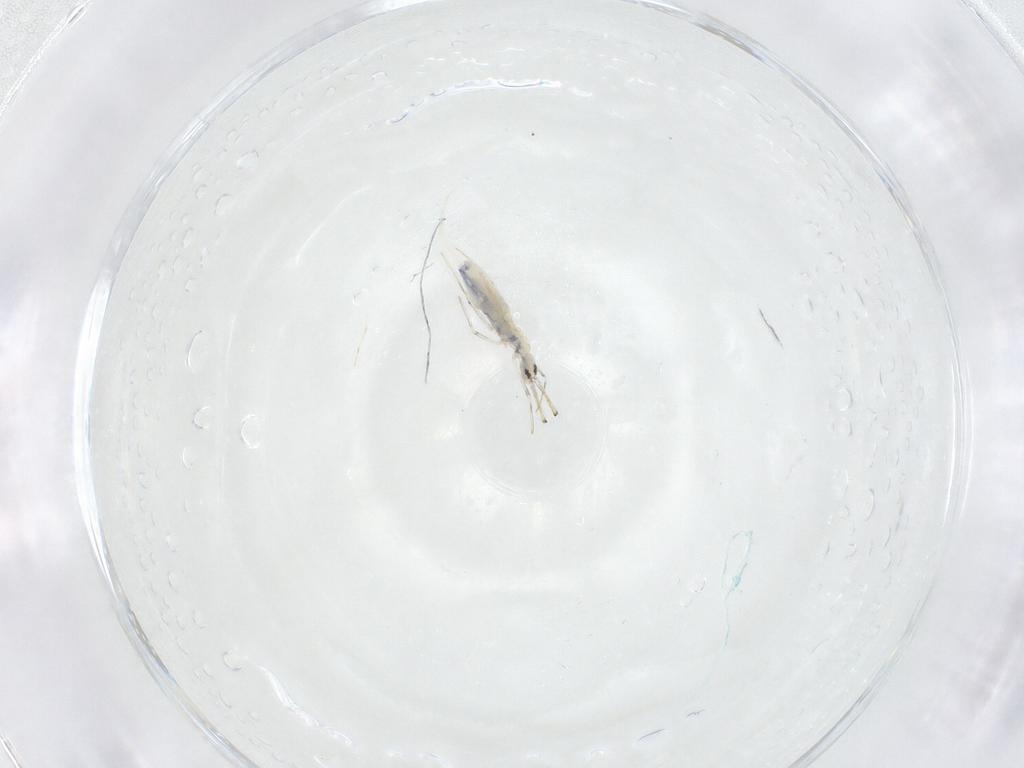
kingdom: Animalia
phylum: Arthropoda
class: Collembola
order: Entomobryomorpha
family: Paronellidae
